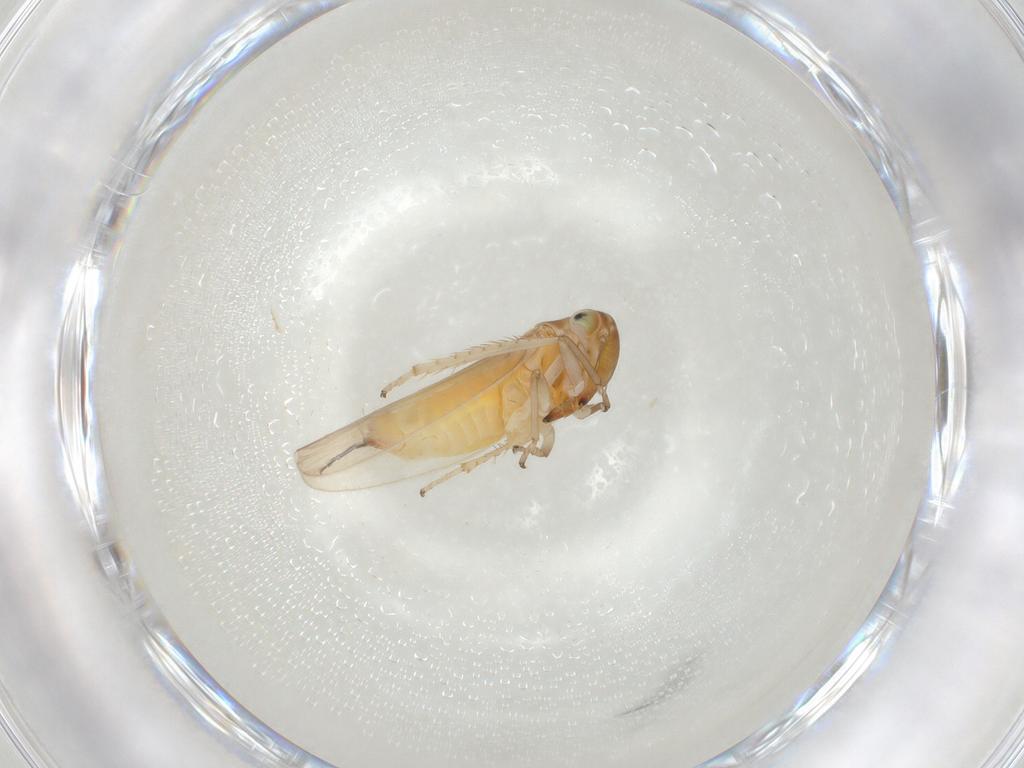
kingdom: Animalia
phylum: Arthropoda
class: Insecta
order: Hemiptera
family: Cicadellidae
